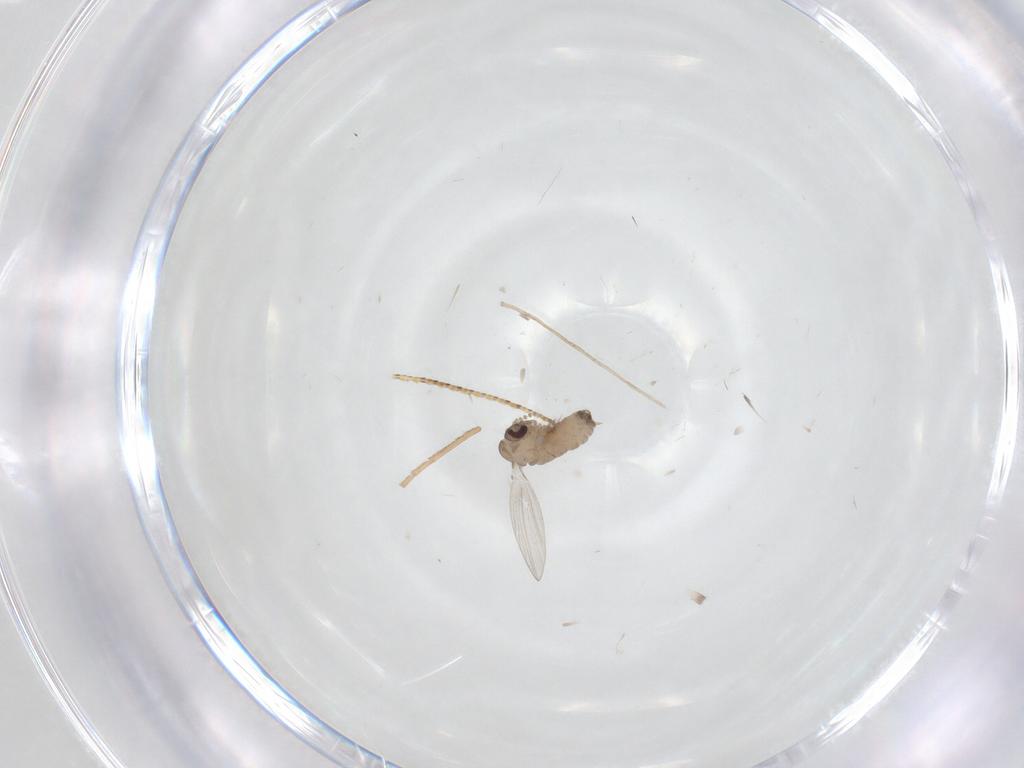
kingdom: Animalia
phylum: Arthropoda
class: Insecta
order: Diptera
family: Psychodidae
